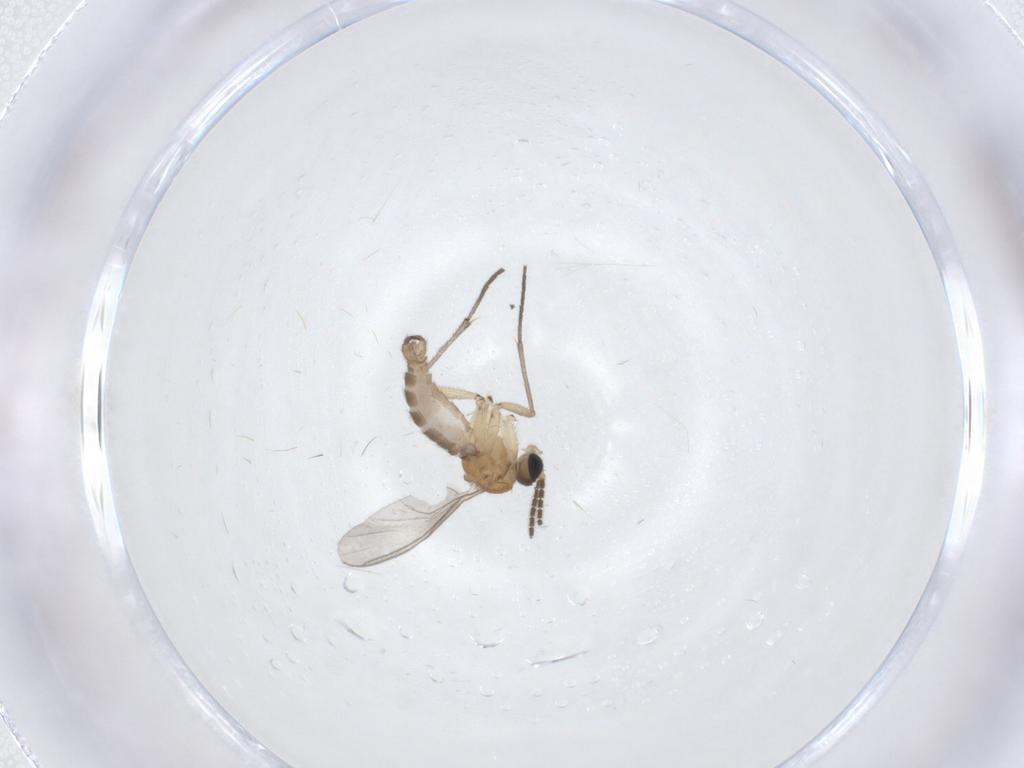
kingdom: Animalia
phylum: Arthropoda
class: Insecta
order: Diptera
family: Sciaridae
